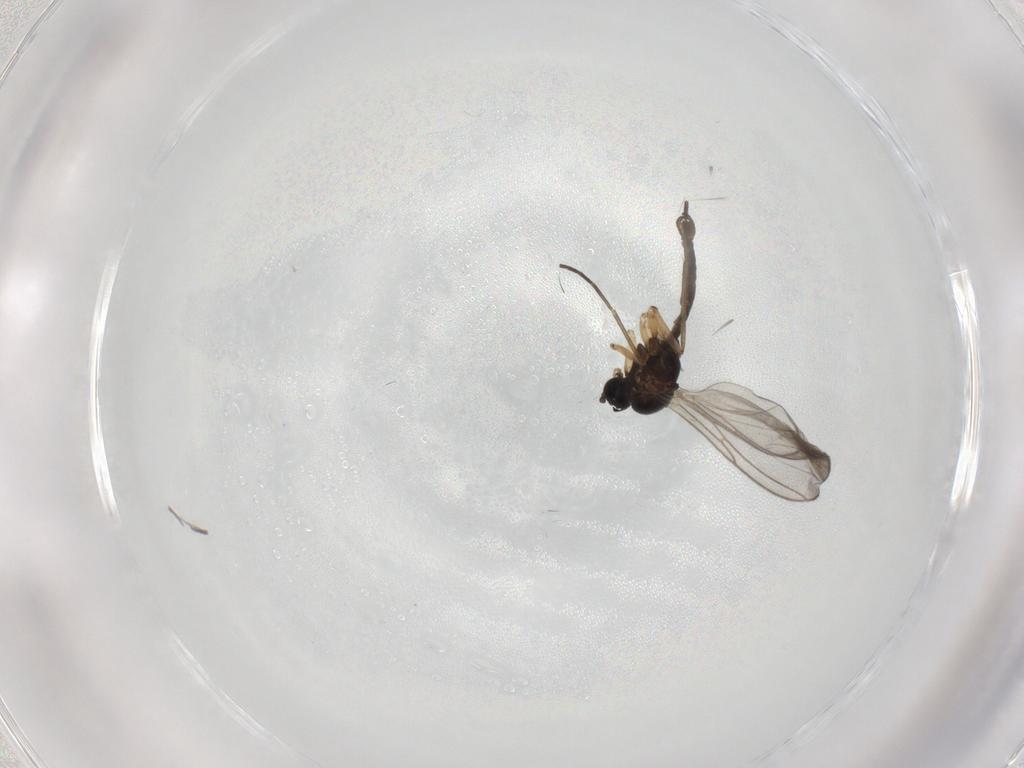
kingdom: Animalia
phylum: Arthropoda
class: Insecta
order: Diptera
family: Sciaridae
